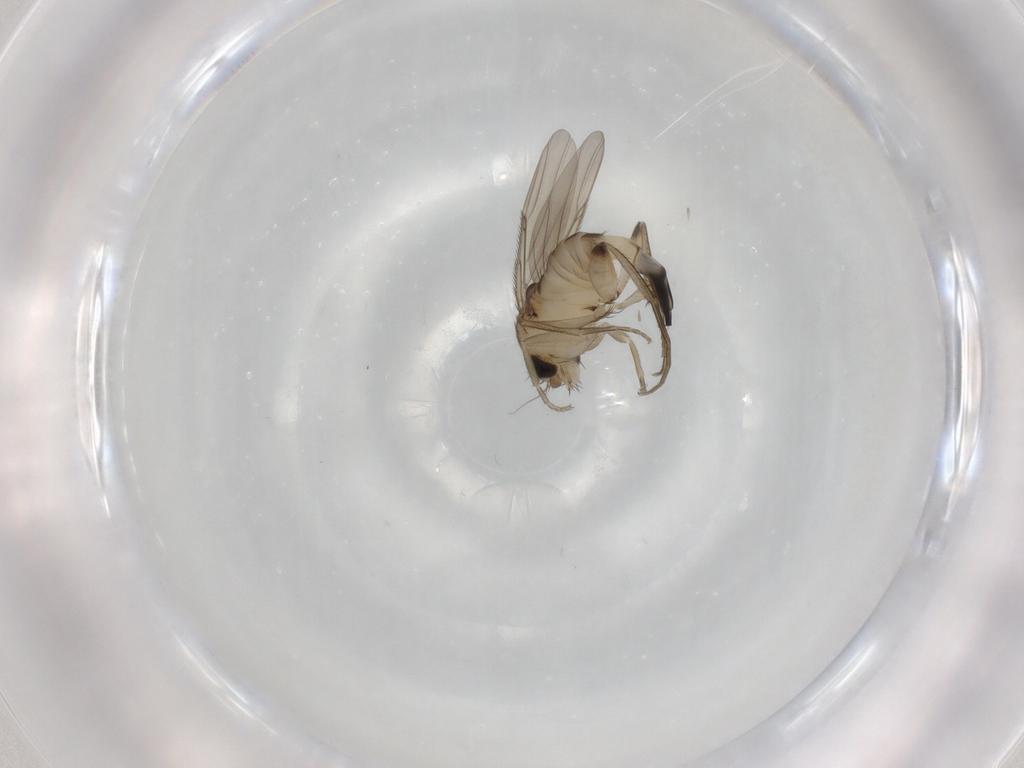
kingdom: Animalia
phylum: Arthropoda
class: Insecta
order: Diptera
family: Phoridae
